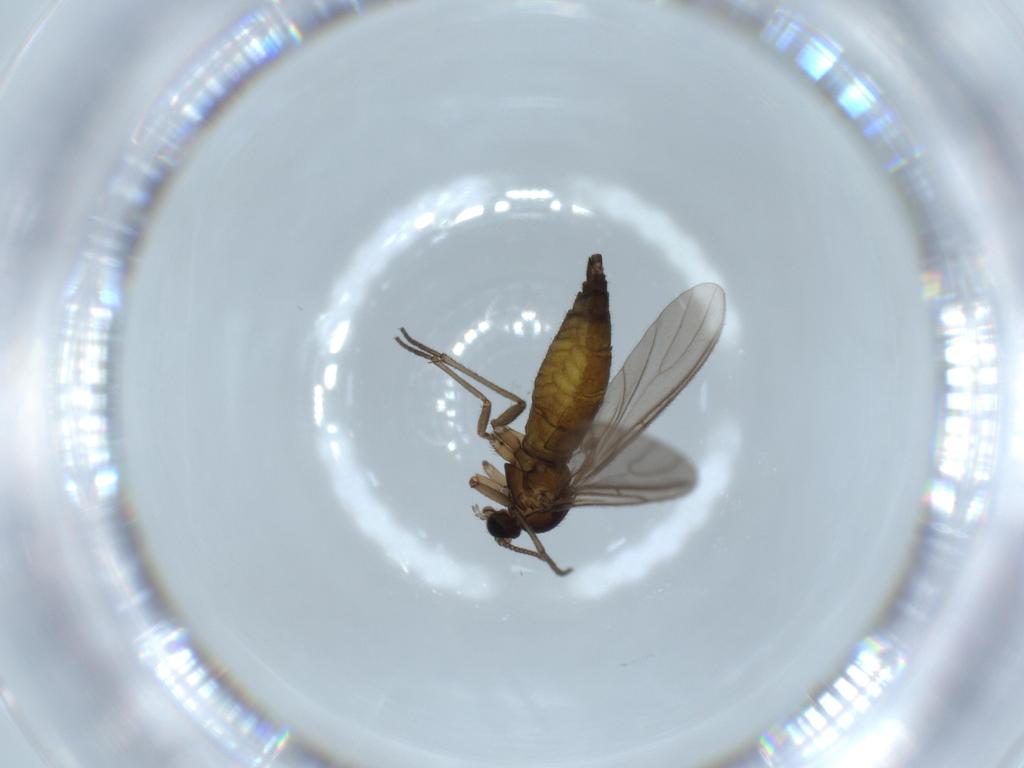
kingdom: Animalia
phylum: Arthropoda
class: Insecta
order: Diptera
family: Sciaridae
